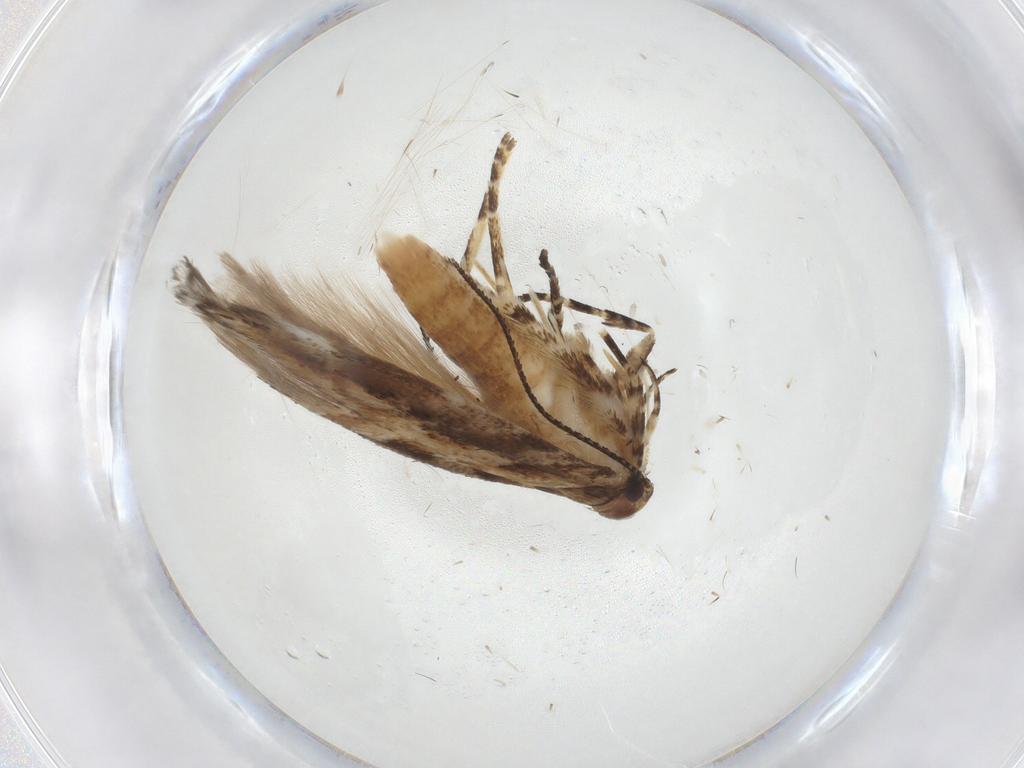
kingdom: Animalia
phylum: Arthropoda
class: Insecta
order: Lepidoptera
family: Gelechiidae
